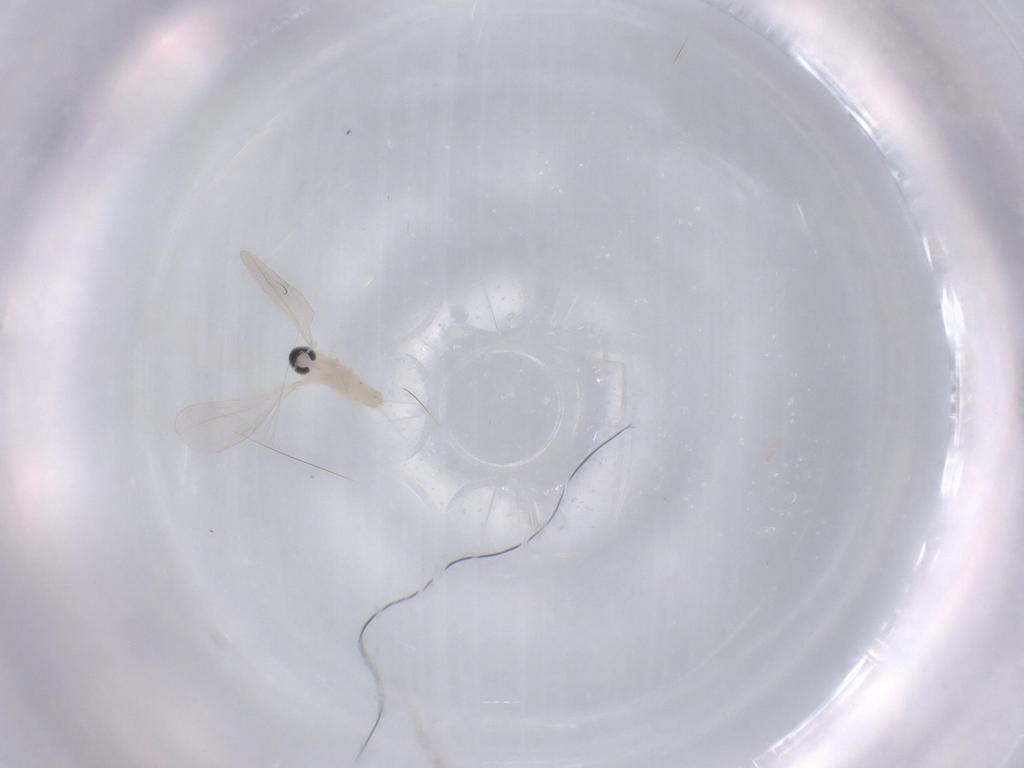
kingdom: Animalia
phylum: Arthropoda
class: Insecta
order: Diptera
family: Cecidomyiidae
